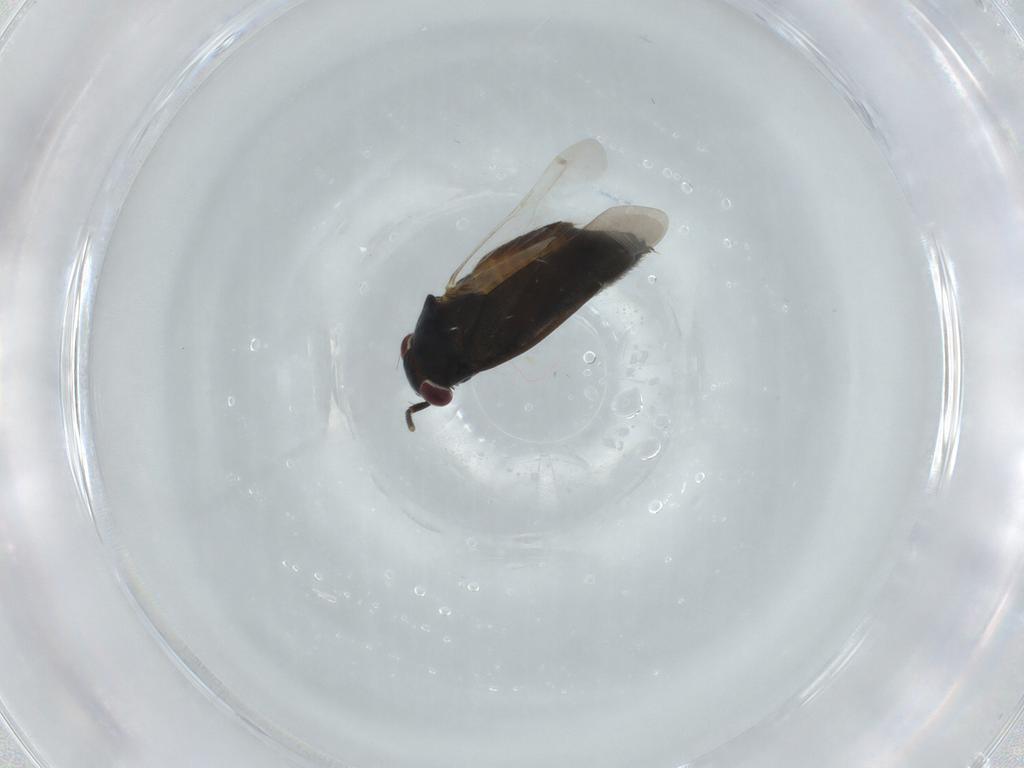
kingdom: Animalia
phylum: Arthropoda
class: Insecta
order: Hemiptera
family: Miridae
